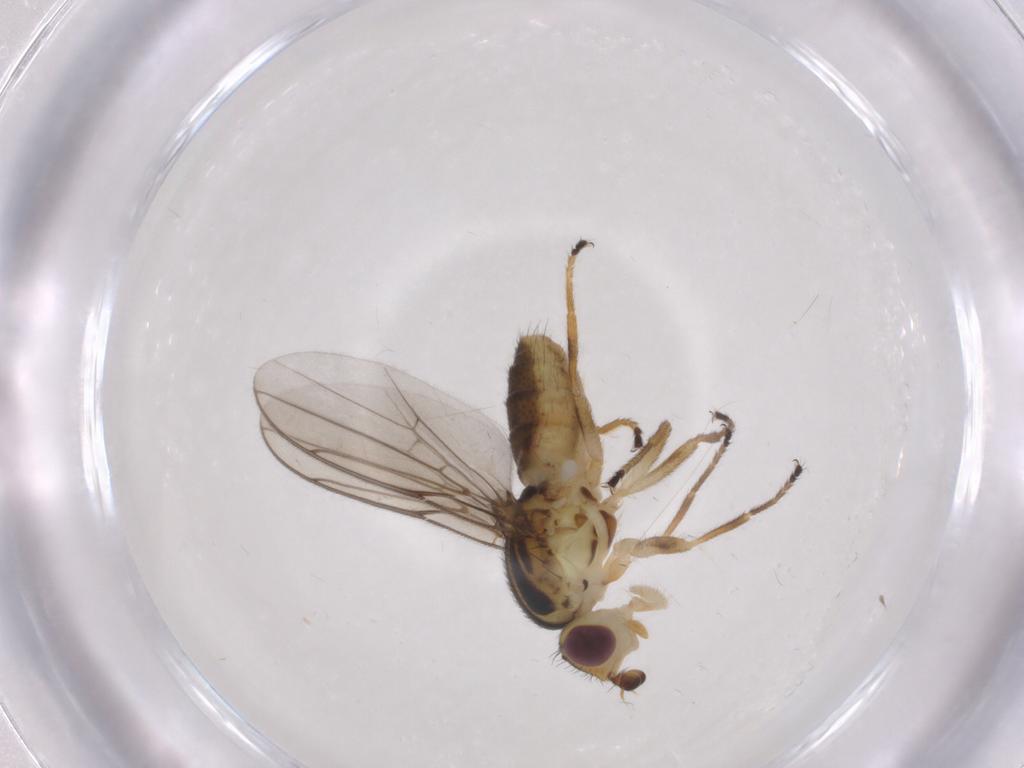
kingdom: Animalia
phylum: Arthropoda
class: Insecta
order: Diptera
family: Chloropidae
